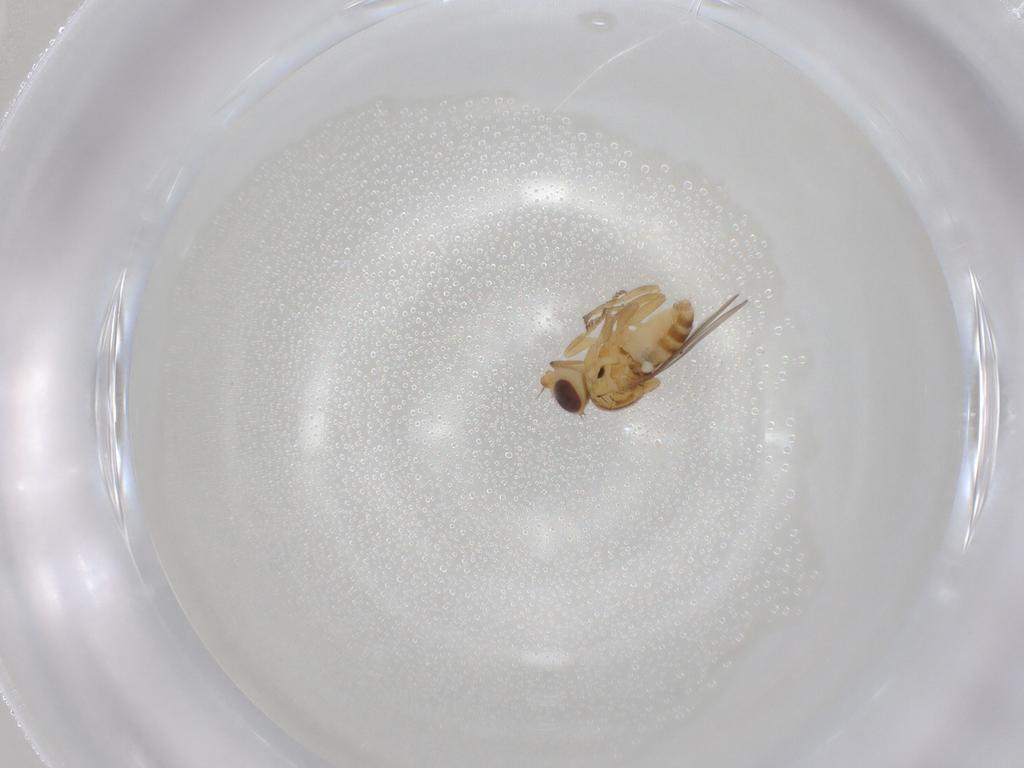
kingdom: Animalia
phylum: Arthropoda
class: Insecta
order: Diptera
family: Chloropidae
